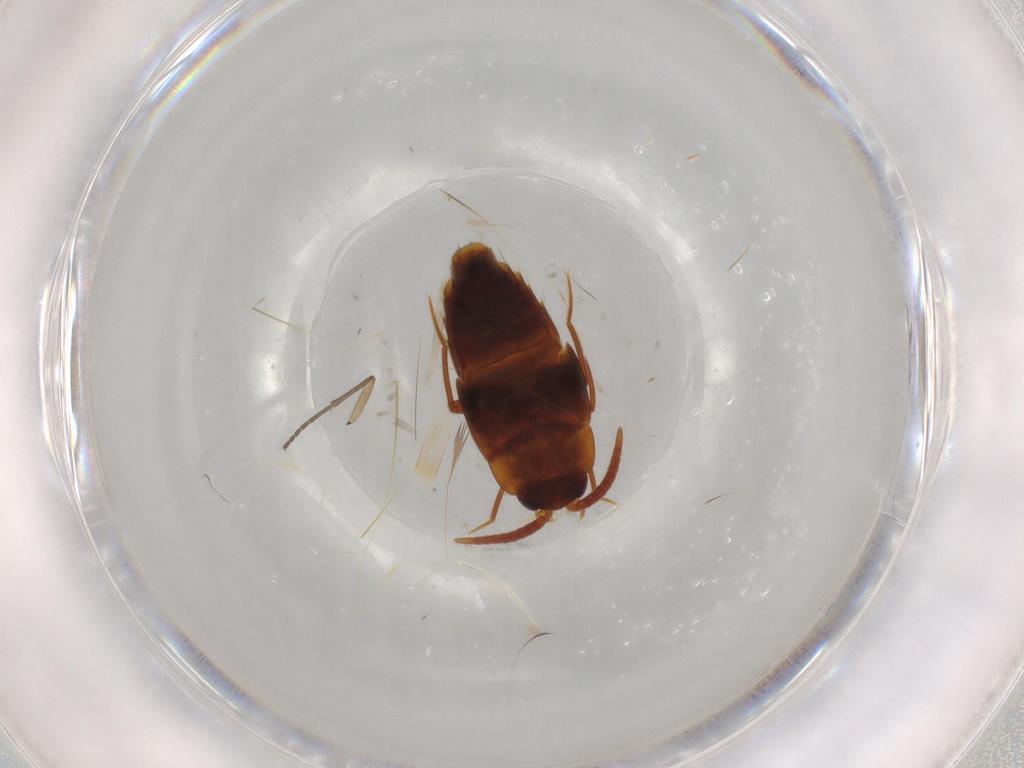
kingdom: Animalia
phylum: Arthropoda
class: Insecta
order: Coleoptera
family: Staphylinidae
